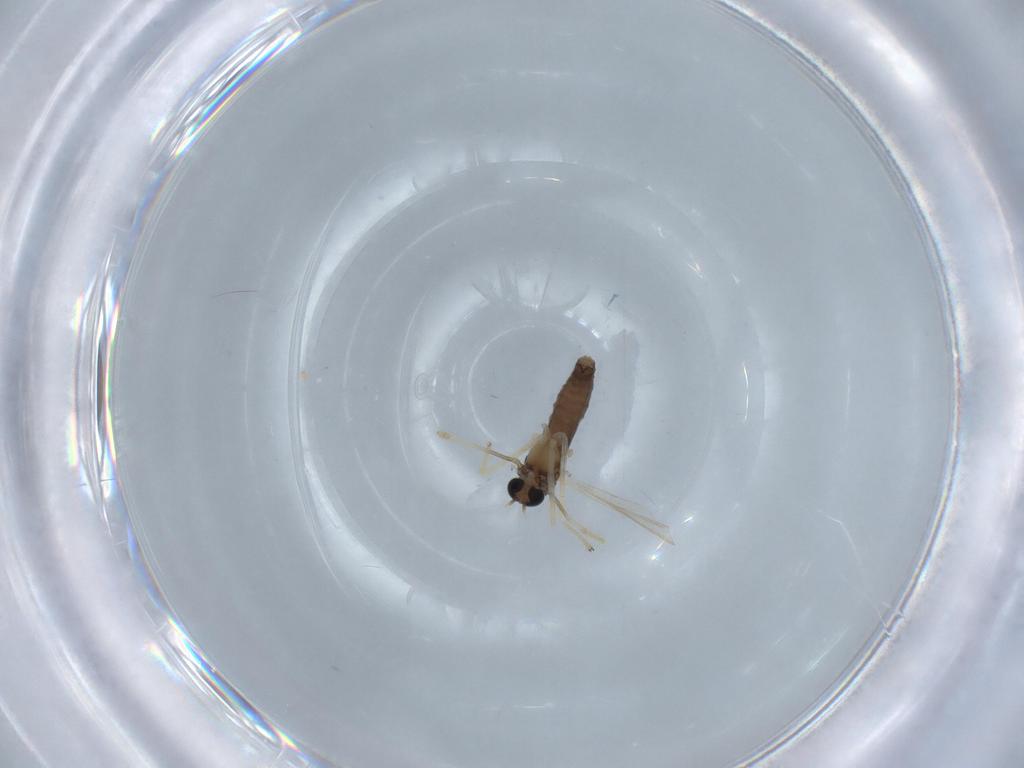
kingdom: Animalia
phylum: Arthropoda
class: Insecta
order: Diptera
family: Chironomidae
